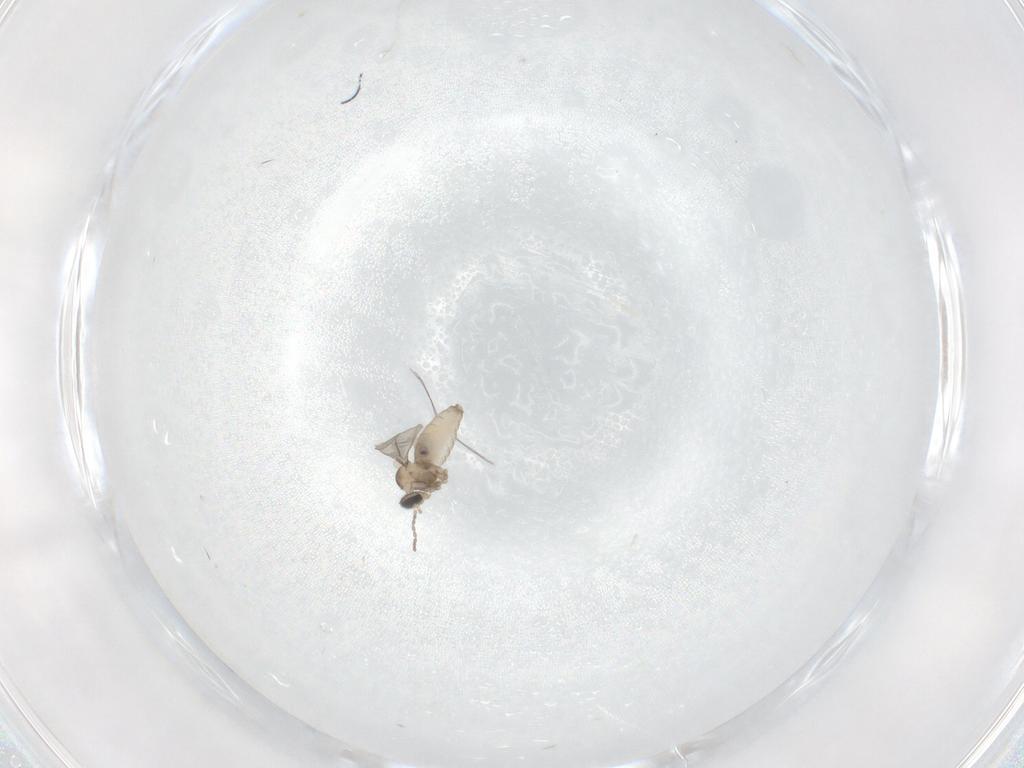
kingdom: Animalia
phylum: Arthropoda
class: Insecta
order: Diptera
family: Cecidomyiidae
